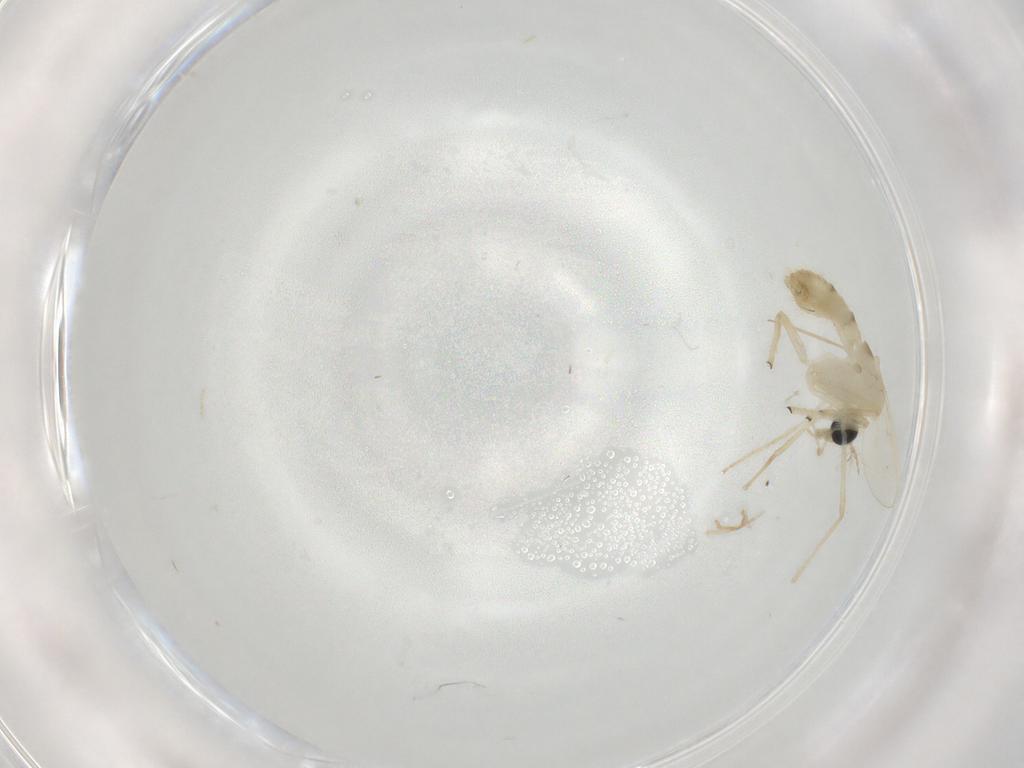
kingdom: Animalia
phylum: Arthropoda
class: Insecta
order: Diptera
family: Chironomidae
